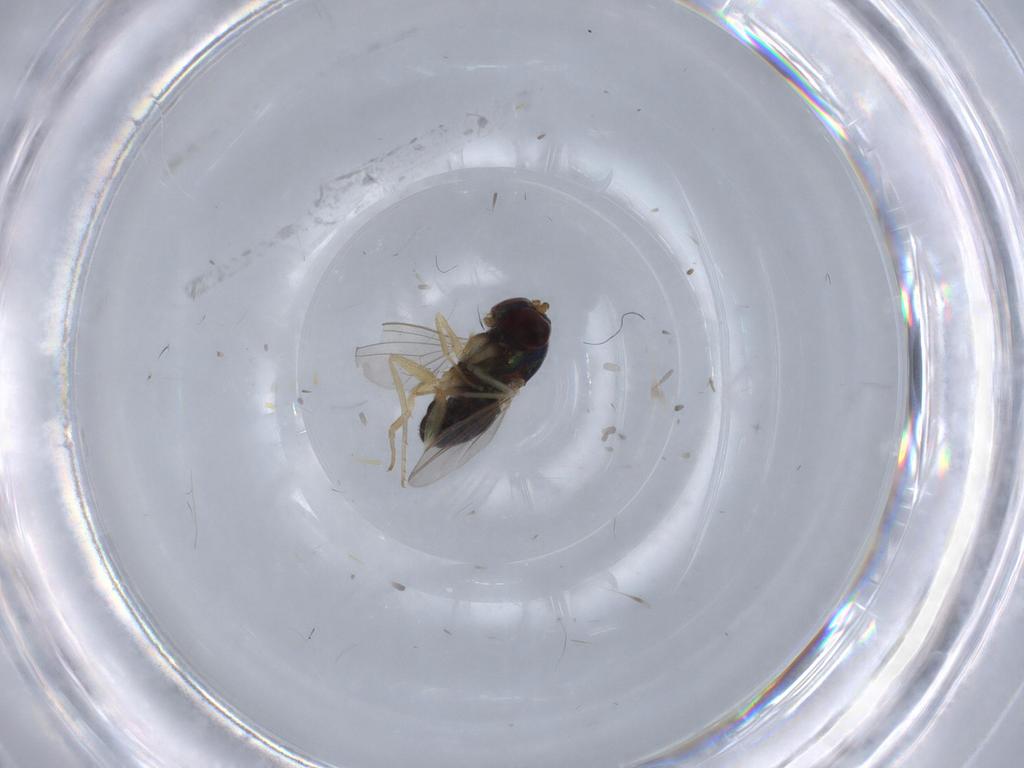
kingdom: Animalia
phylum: Arthropoda
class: Insecta
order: Diptera
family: Dolichopodidae
